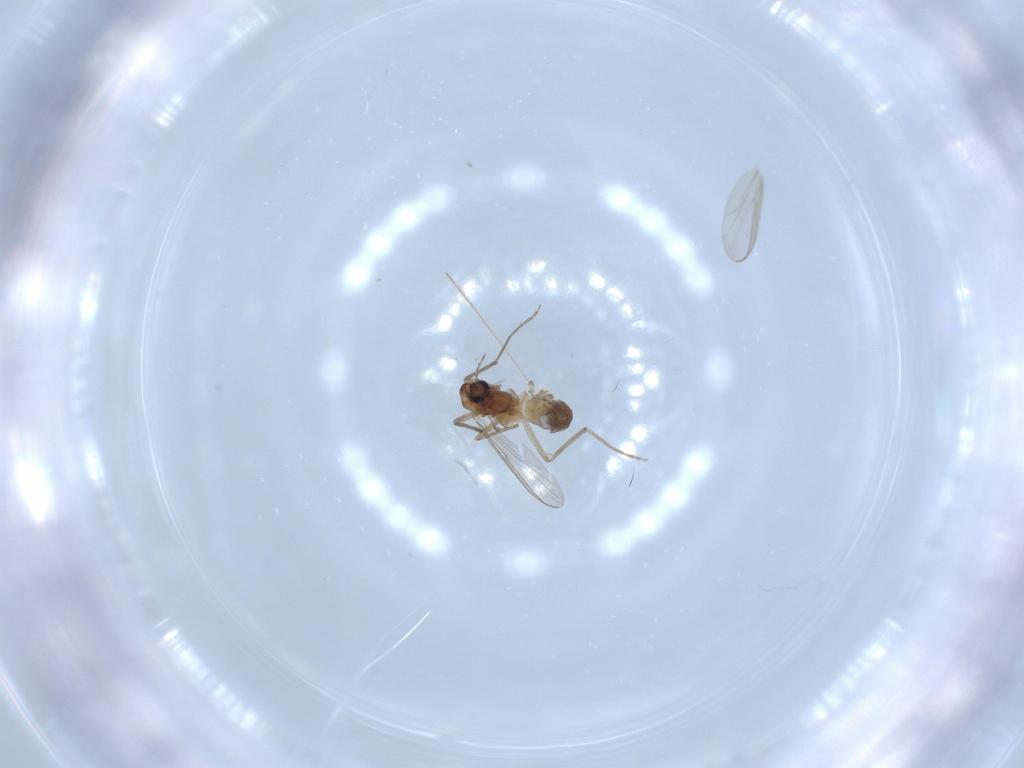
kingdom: Animalia
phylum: Arthropoda
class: Insecta
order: Diptera
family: Chironomidae
